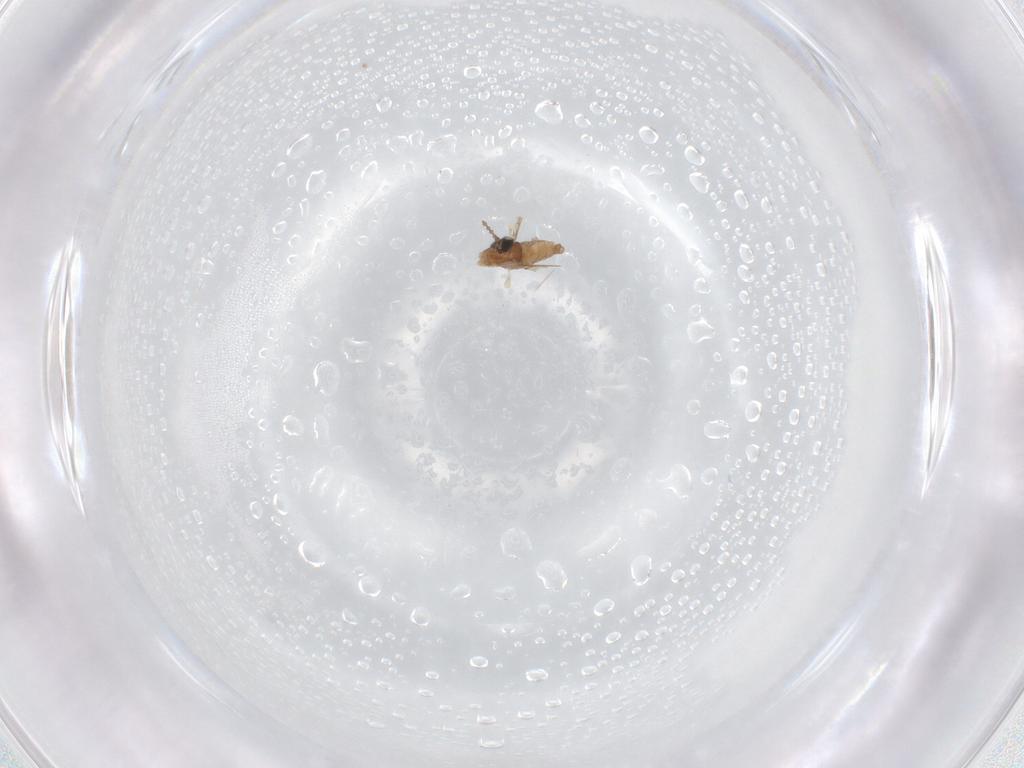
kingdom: Animalia
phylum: Arthropoda
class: Insecta
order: Diptera
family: Cecidomyiidae
